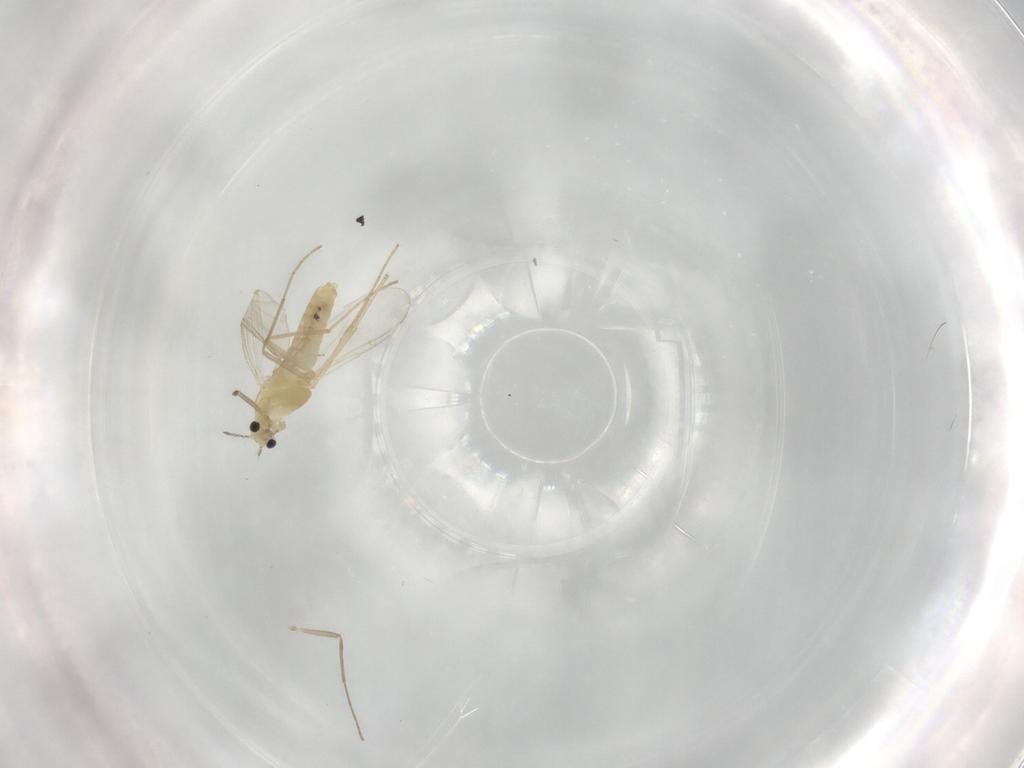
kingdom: Animalia
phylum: Arthropoda
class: Insecta
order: Diptera
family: Chironomidae
